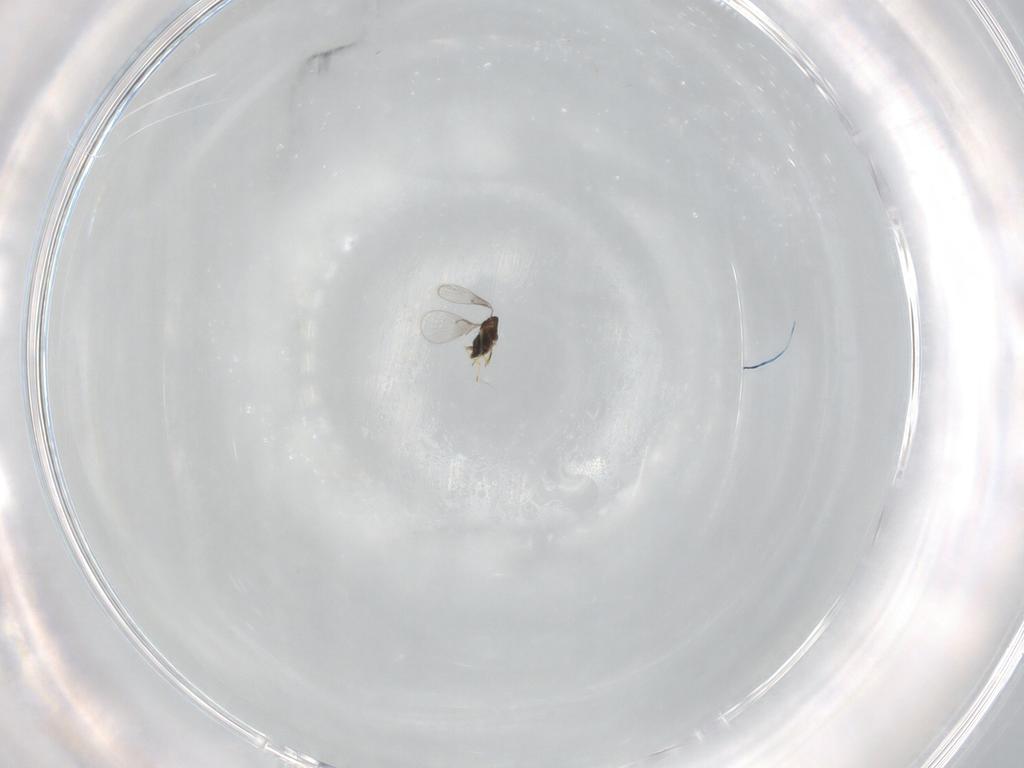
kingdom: Animalia
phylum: Arthropoda
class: Insecta
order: Hymenoptera
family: Trichogrammatidae
